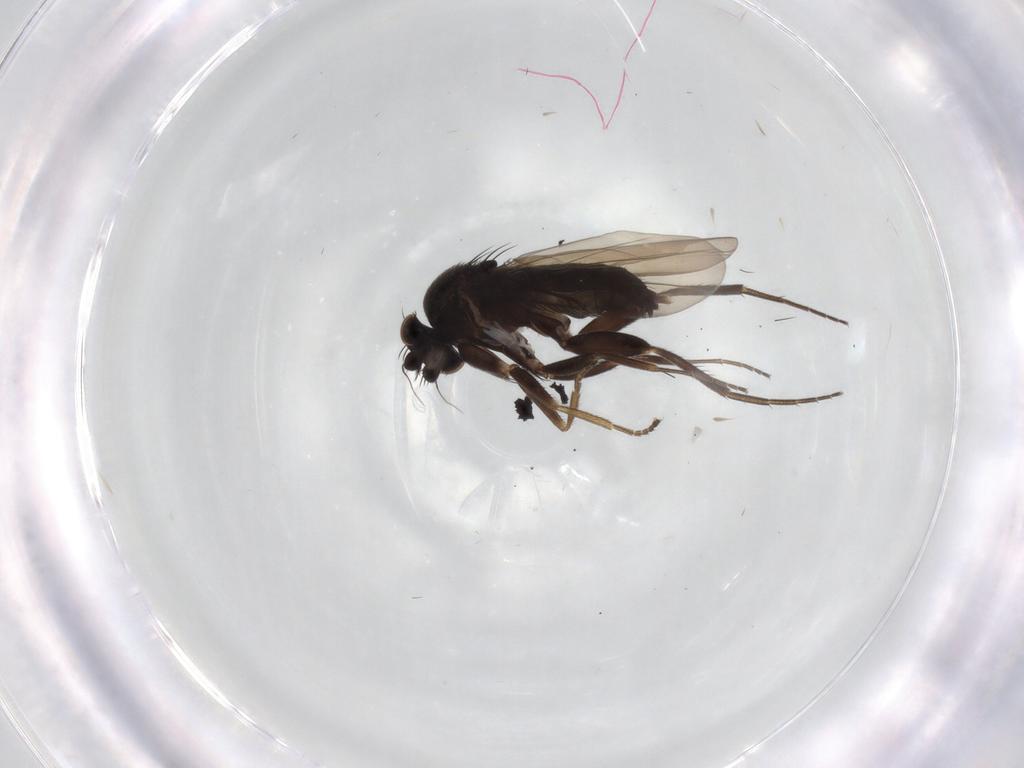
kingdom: Animalia
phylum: Arthropoda
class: Insecta
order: Diptera
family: Phoridae
